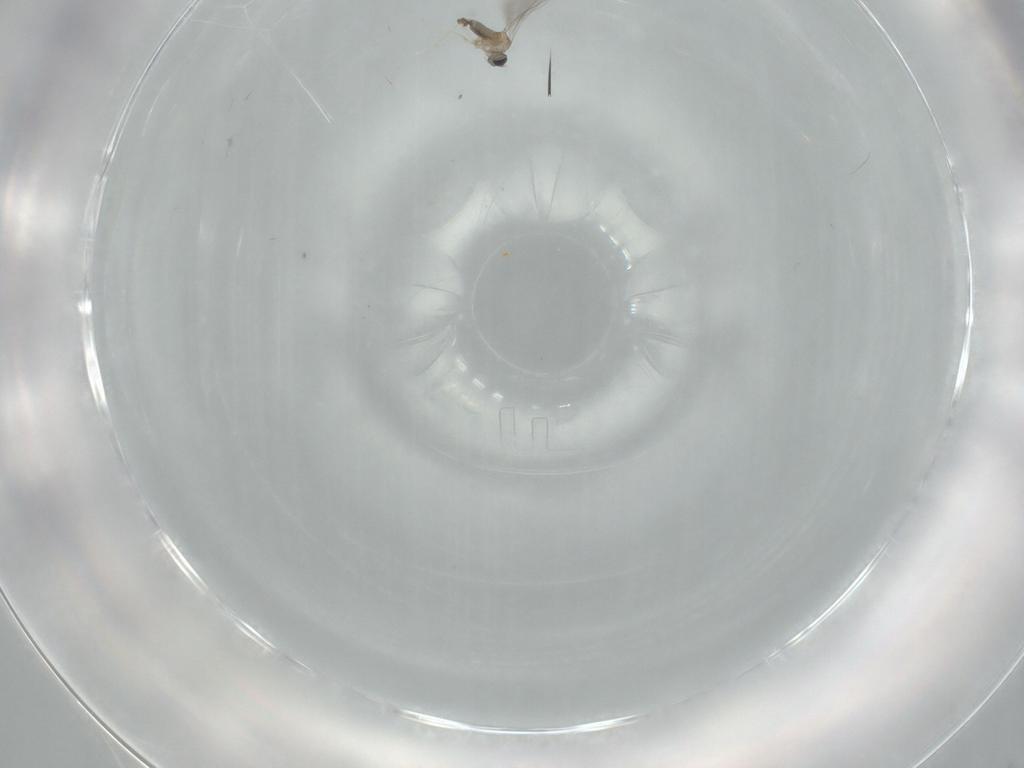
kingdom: Animalia
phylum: Arthropoda
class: Insecta
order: Diptera
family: Cecidomyiidae
